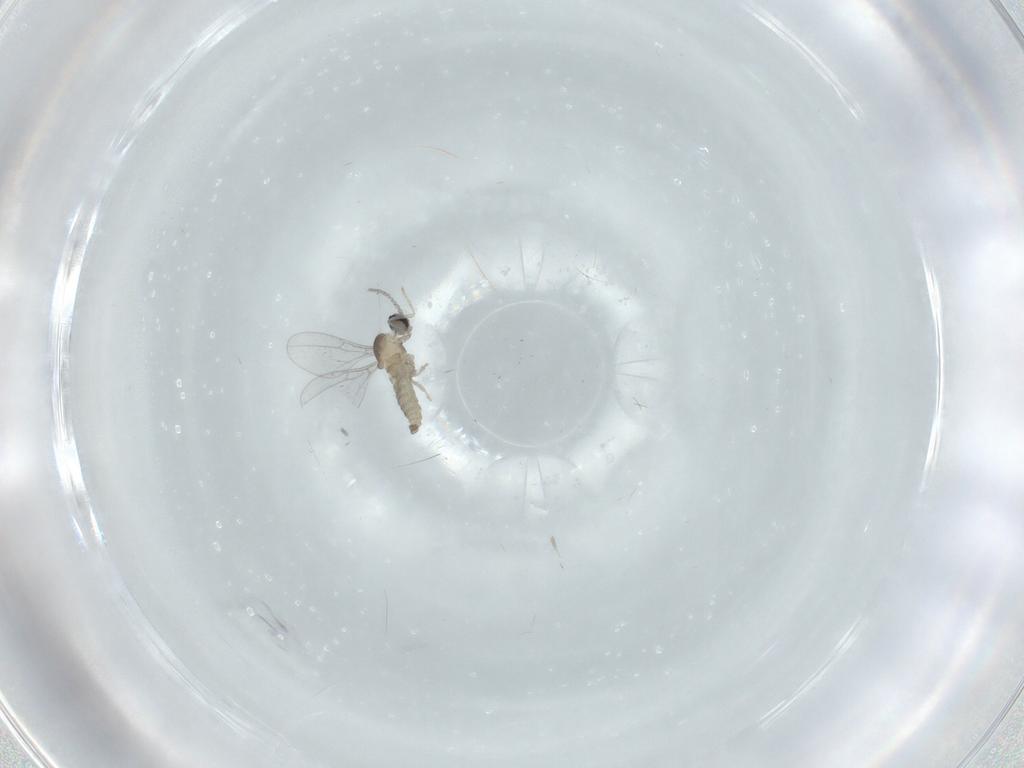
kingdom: Animalia
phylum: Arthropoda
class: Insecta
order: Diptera
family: Cecidomyiidae
